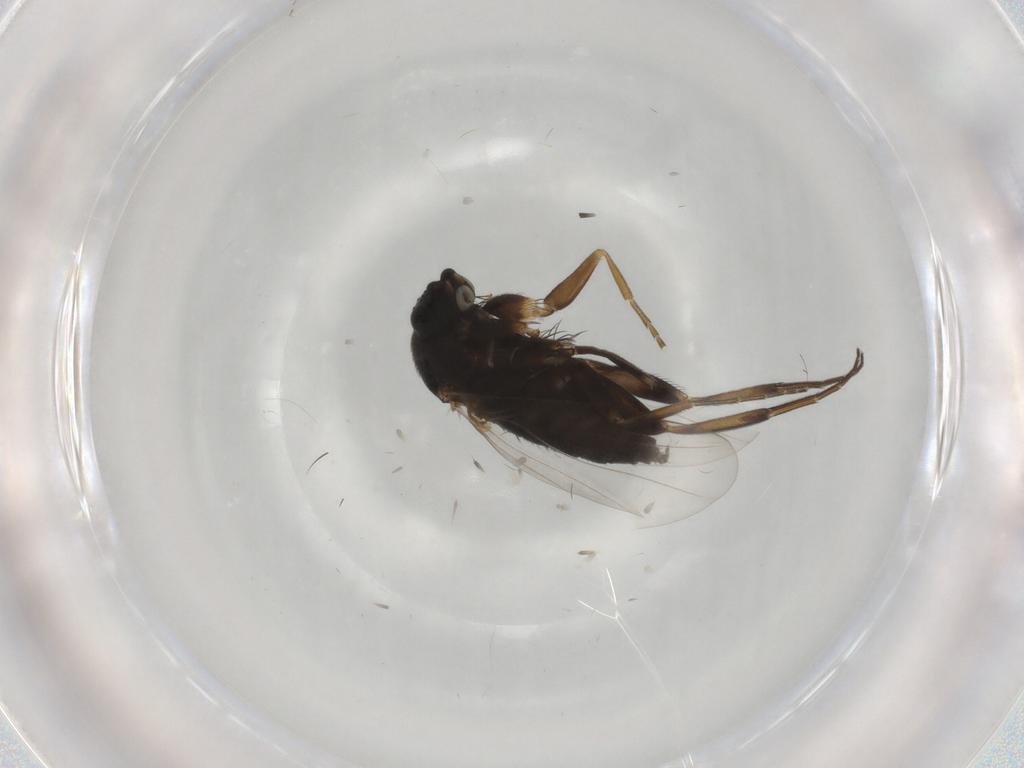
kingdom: Animalia
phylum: Arthropoda
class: Insecta
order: Diptera
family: Phoridae
